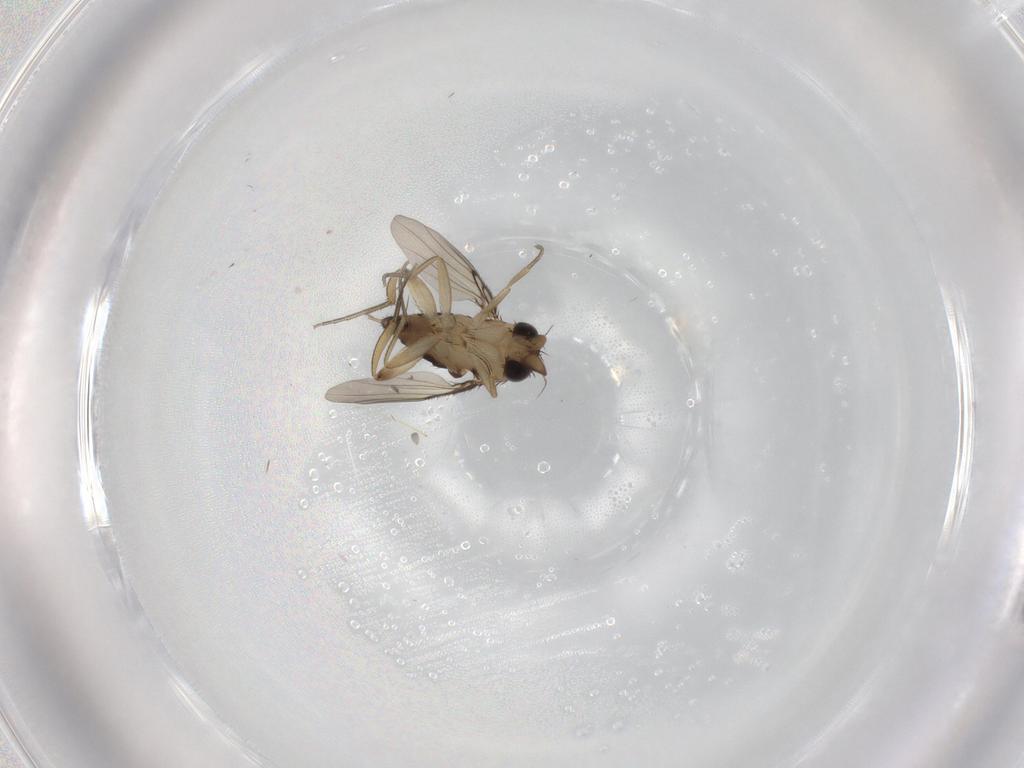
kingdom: Animalia
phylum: Arthropoda
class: Insecta
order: Diptera
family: Phoridae
